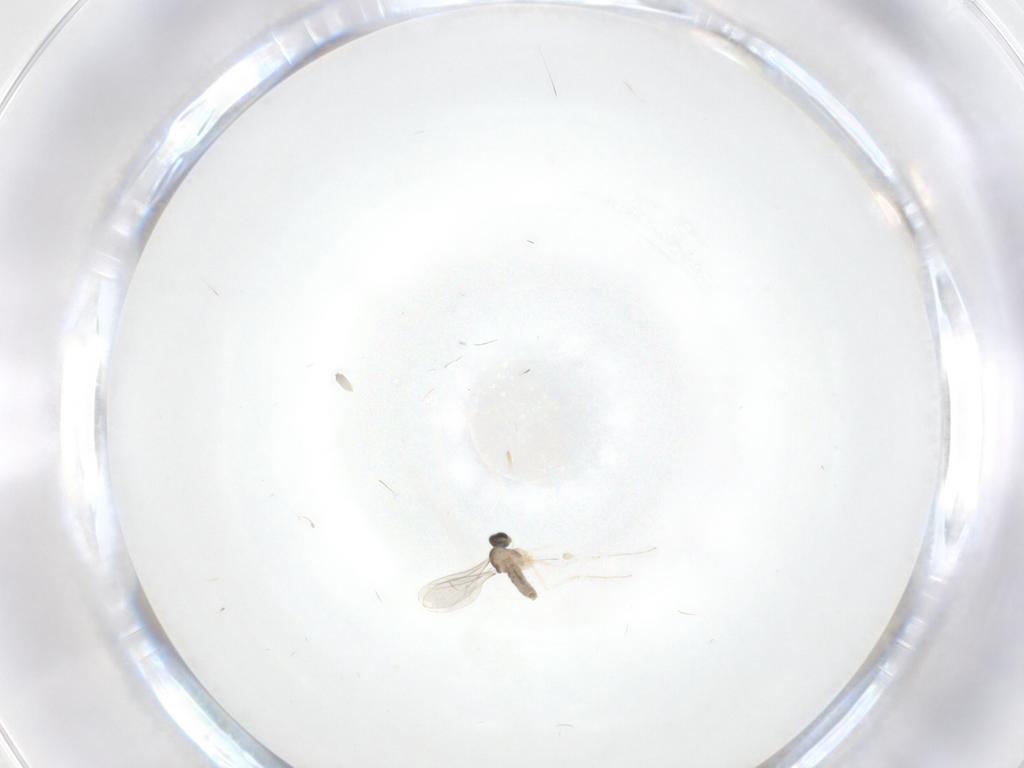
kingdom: Animalia
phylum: Arthropoda
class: Insecta
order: Diptera
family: Cecidomyiidae
